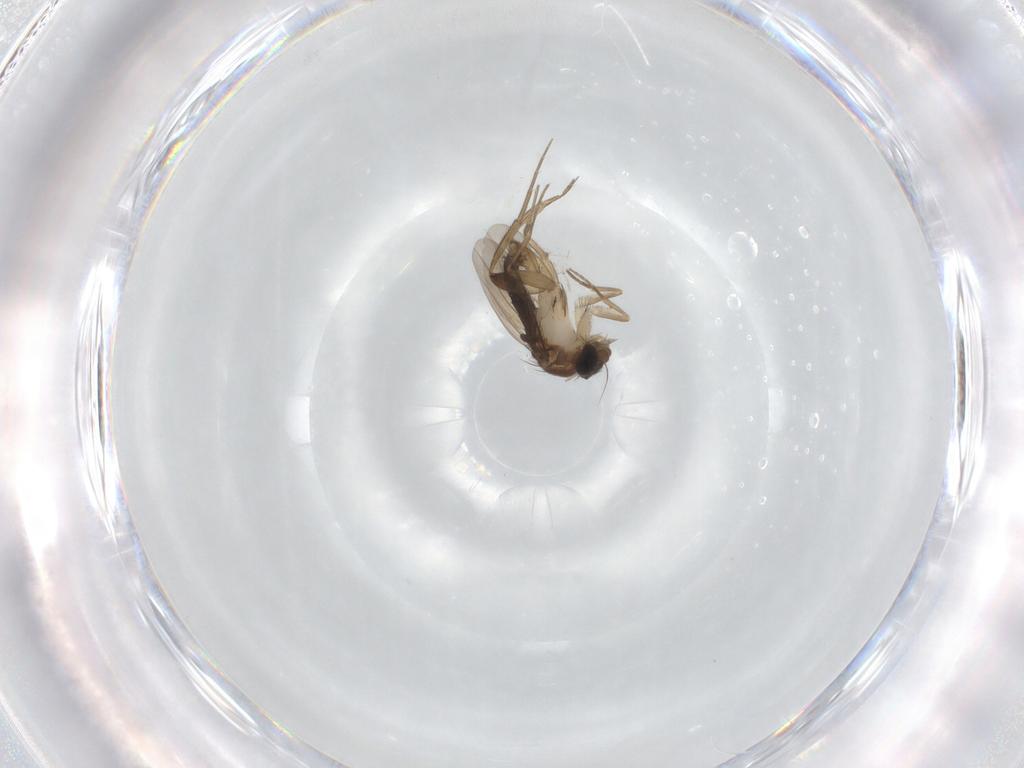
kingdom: Animalia
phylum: Arthropoda
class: Insecta
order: Diptera
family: Phoridae
